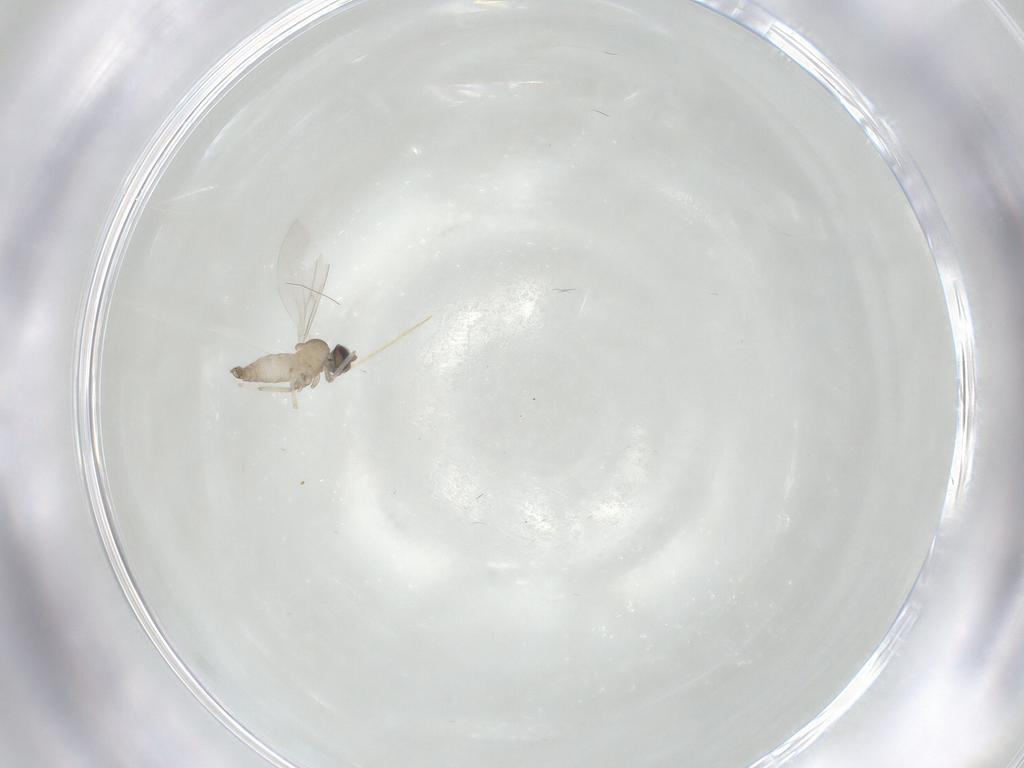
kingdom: Animalia
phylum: Arthropoda
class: Insecta
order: Diptera
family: Cecidomyiidae
